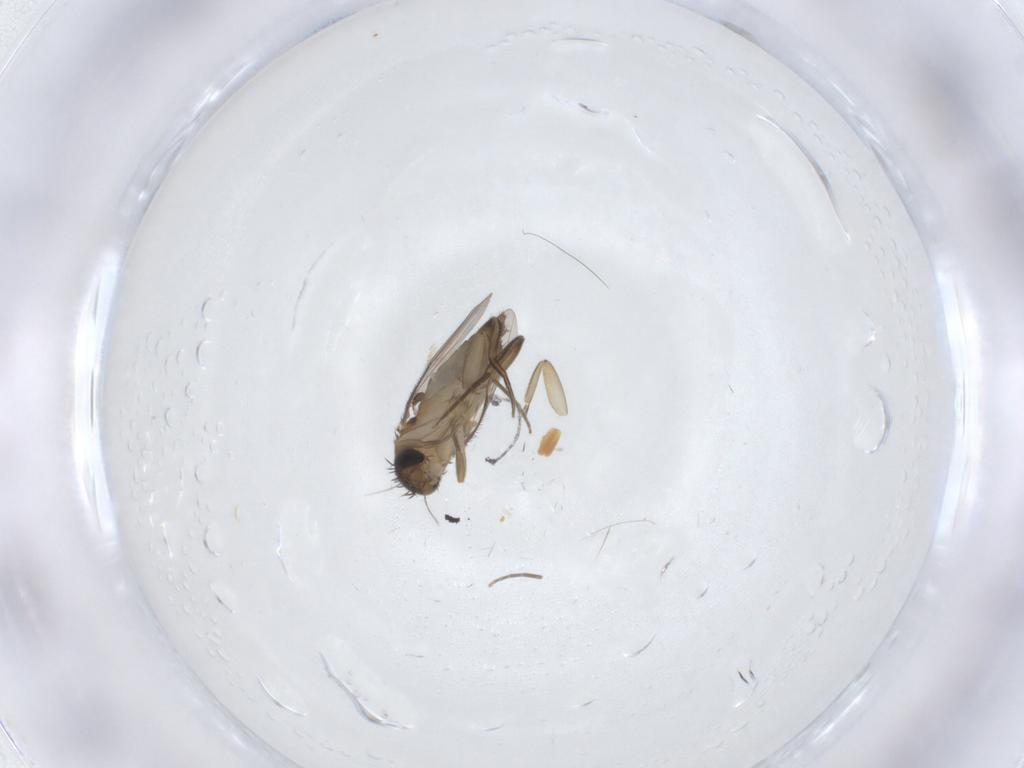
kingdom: Animalia
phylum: Arthropoda
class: Insecta
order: Diptera
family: Phoridae
